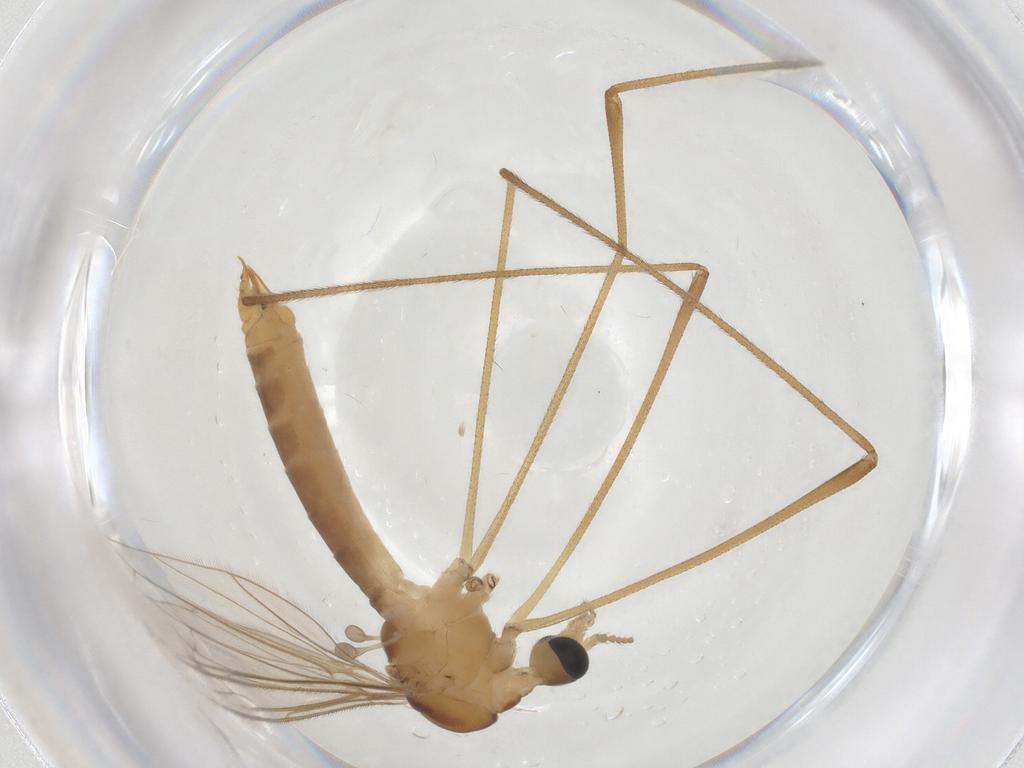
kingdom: Animalia
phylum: Arthropoda
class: Insecta
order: Diptera
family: Limoniidae
